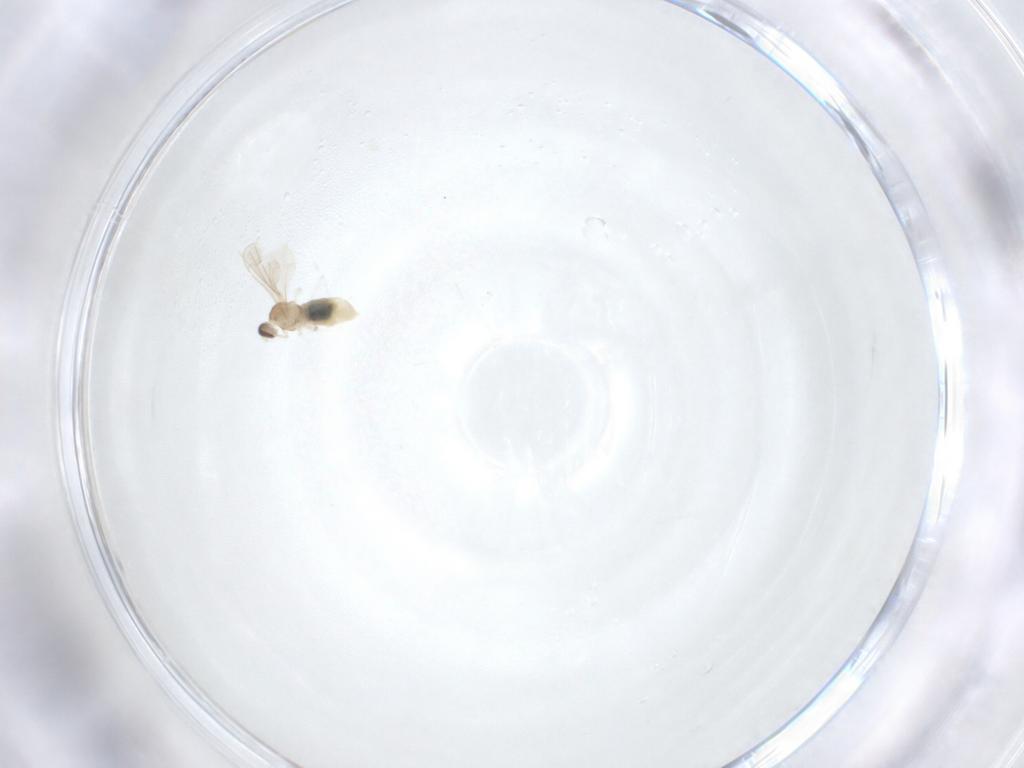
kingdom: Animalia
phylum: Arthropoda
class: Insecta
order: Diptera
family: Cecidomyiidae
